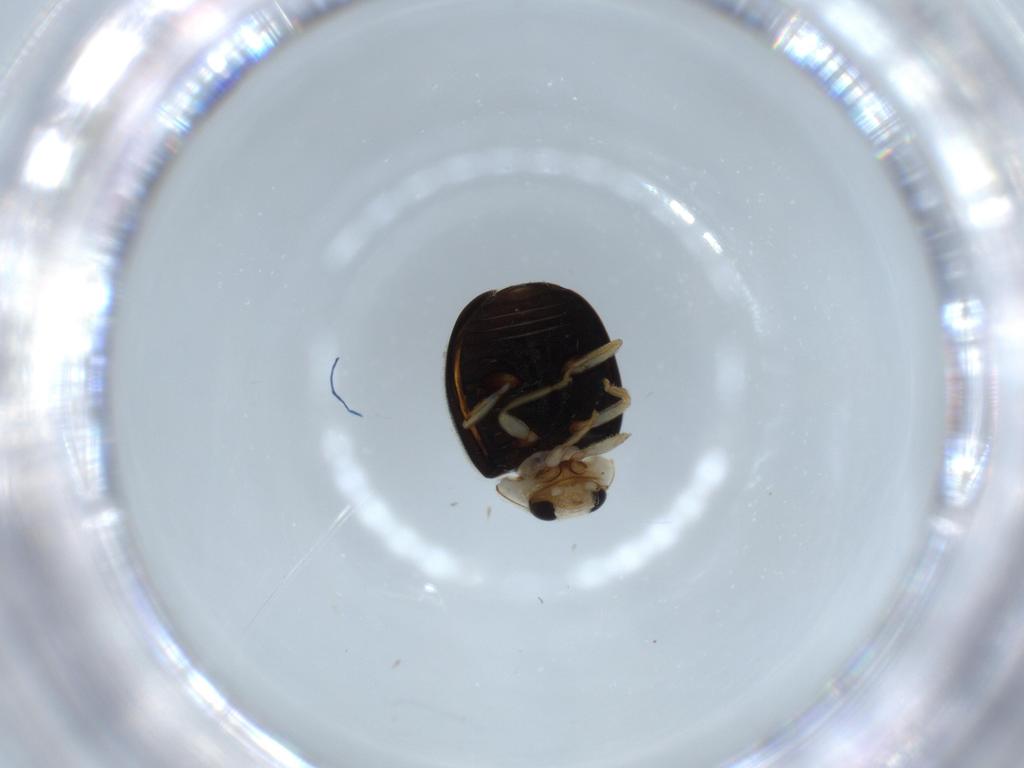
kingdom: Animalia
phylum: Arthropoda
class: Insecta
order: Coleoptera
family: Coccinellidae
